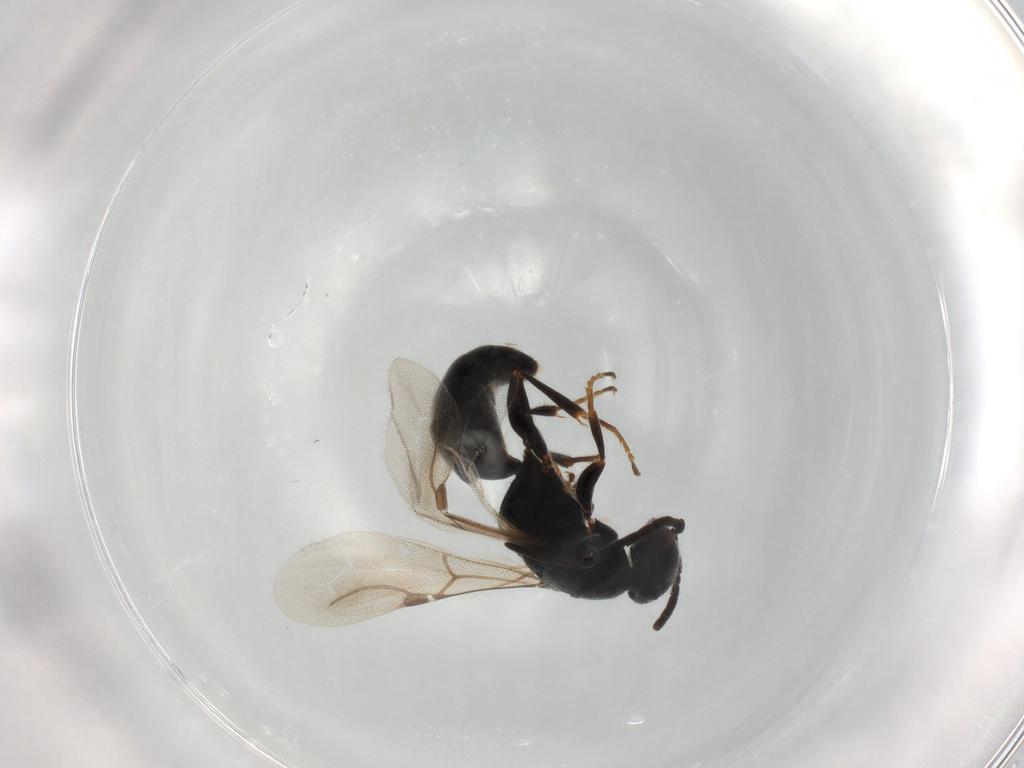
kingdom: Animalia
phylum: Arthropoda
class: Insecta
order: Hymenoptera
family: Bethylidae
